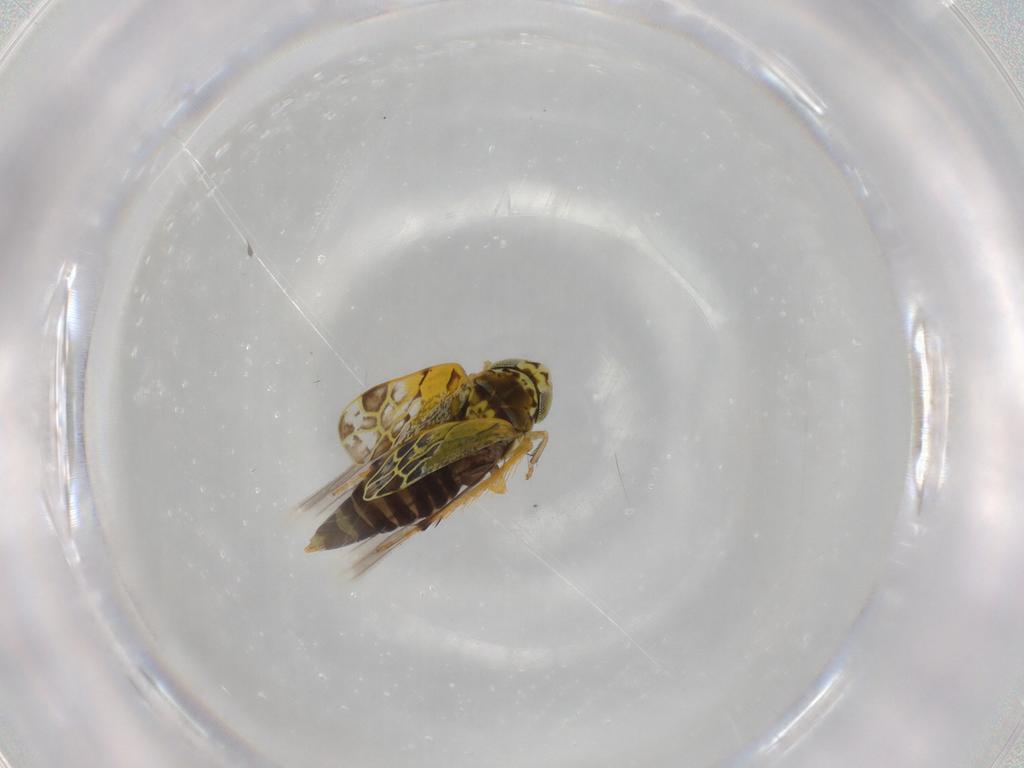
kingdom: Animalia
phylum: Arthropoda
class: Insecta
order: Hemiptera
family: Cicadellidae
